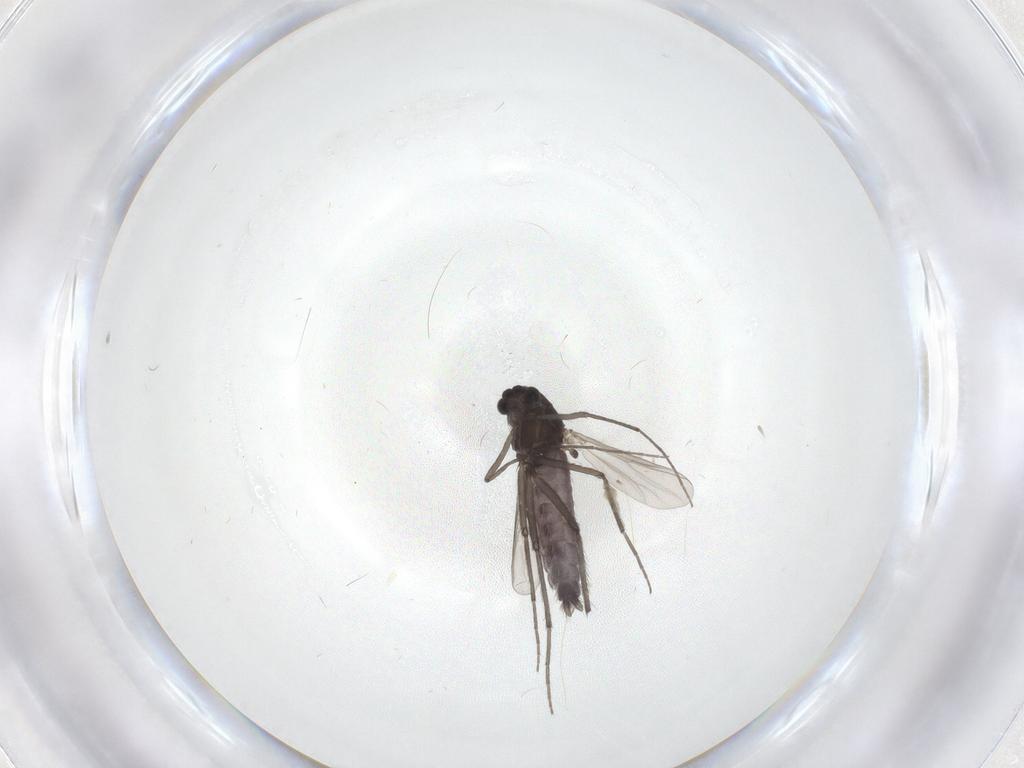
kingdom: Animalia
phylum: Arthropoda
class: Insecta
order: Diptera
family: Chironomidae
